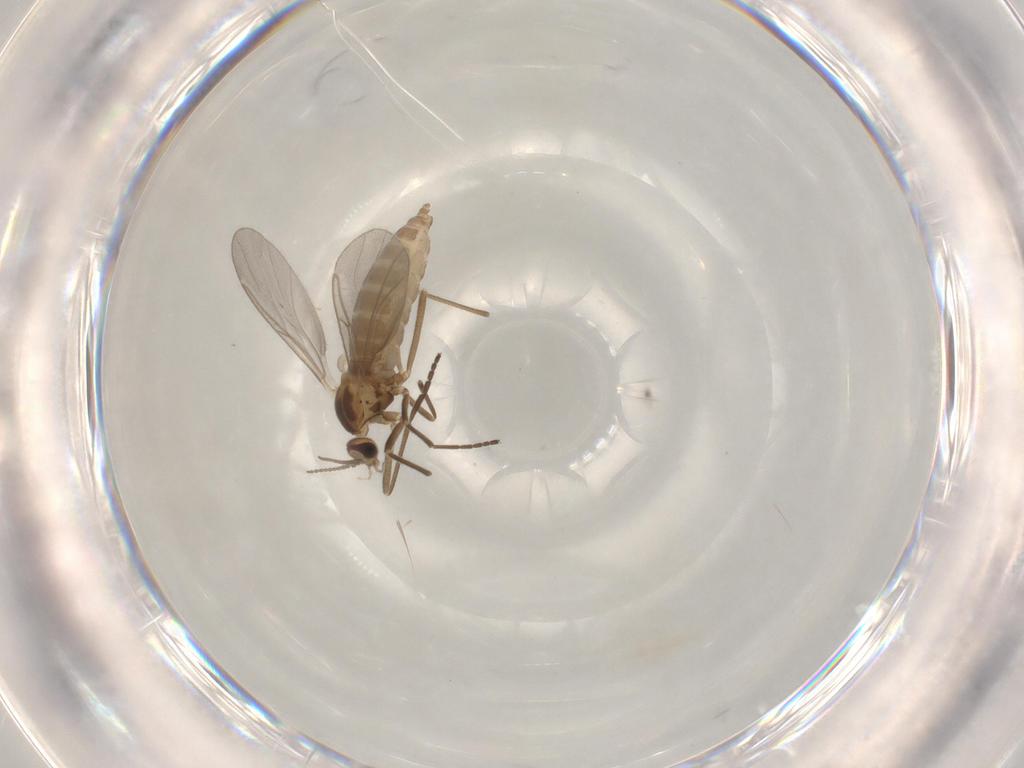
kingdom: Animalia
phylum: Arthropoda
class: Insecta
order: Diptera
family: Cecidomyiidae
